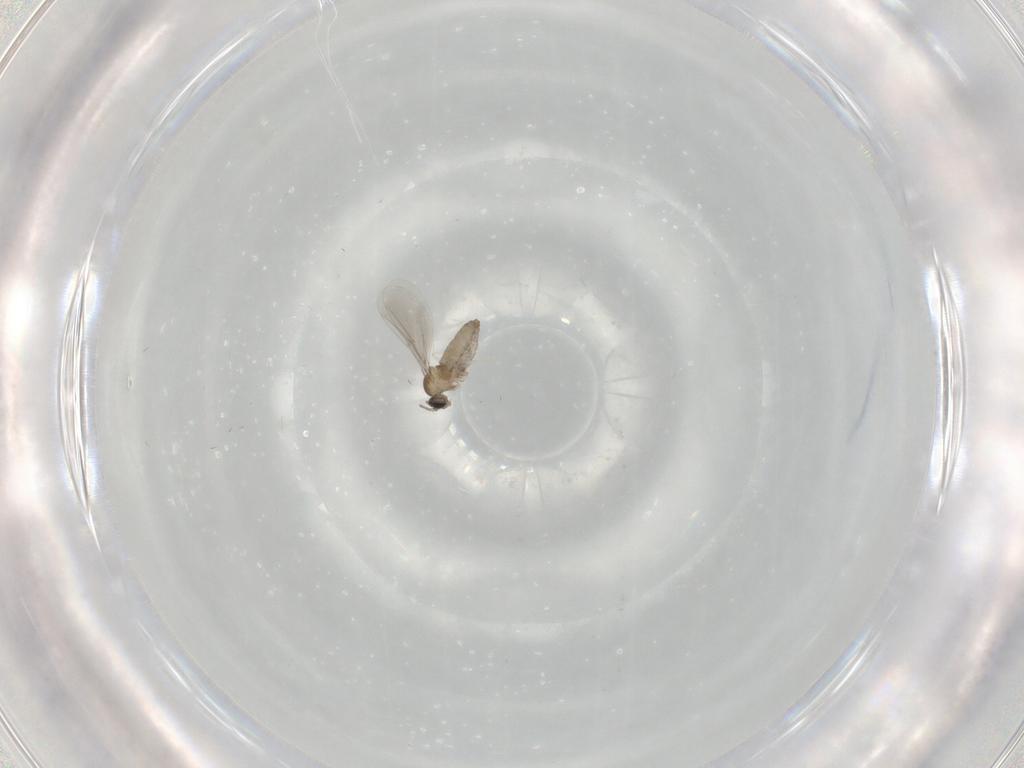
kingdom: Animalia
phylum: Arthropoda
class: Insecta
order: Diptera
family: Cecidomyiidae
